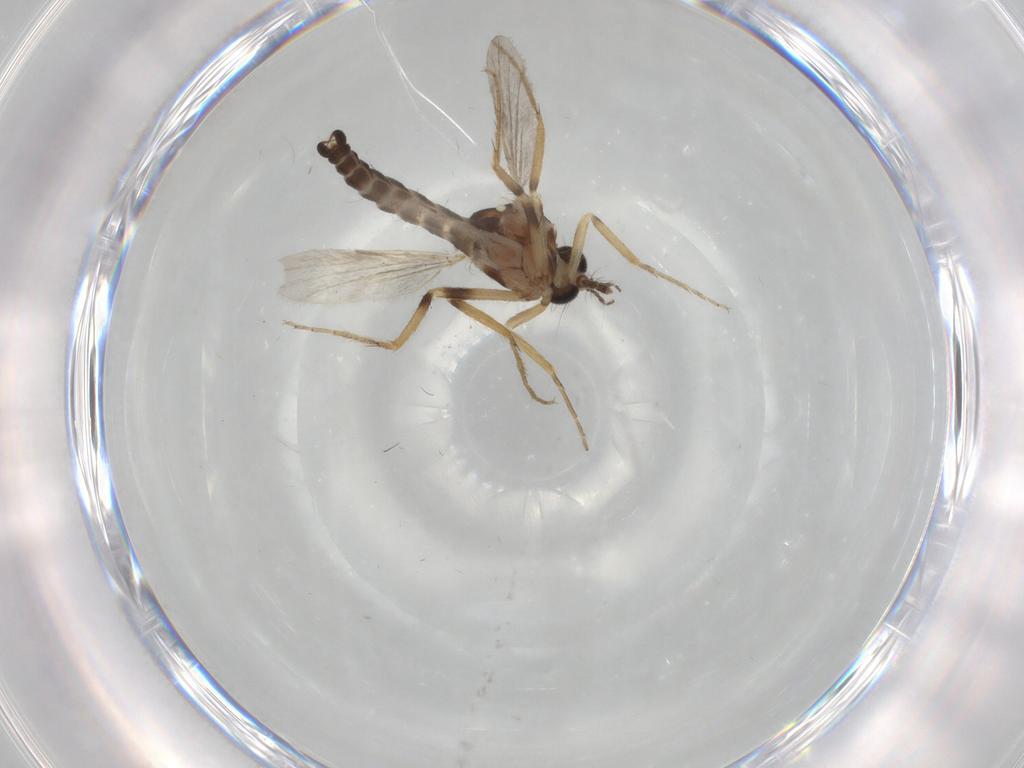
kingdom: Animalia
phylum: Arthropoda
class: Insecta
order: Diptera
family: Ceratopogonidae
